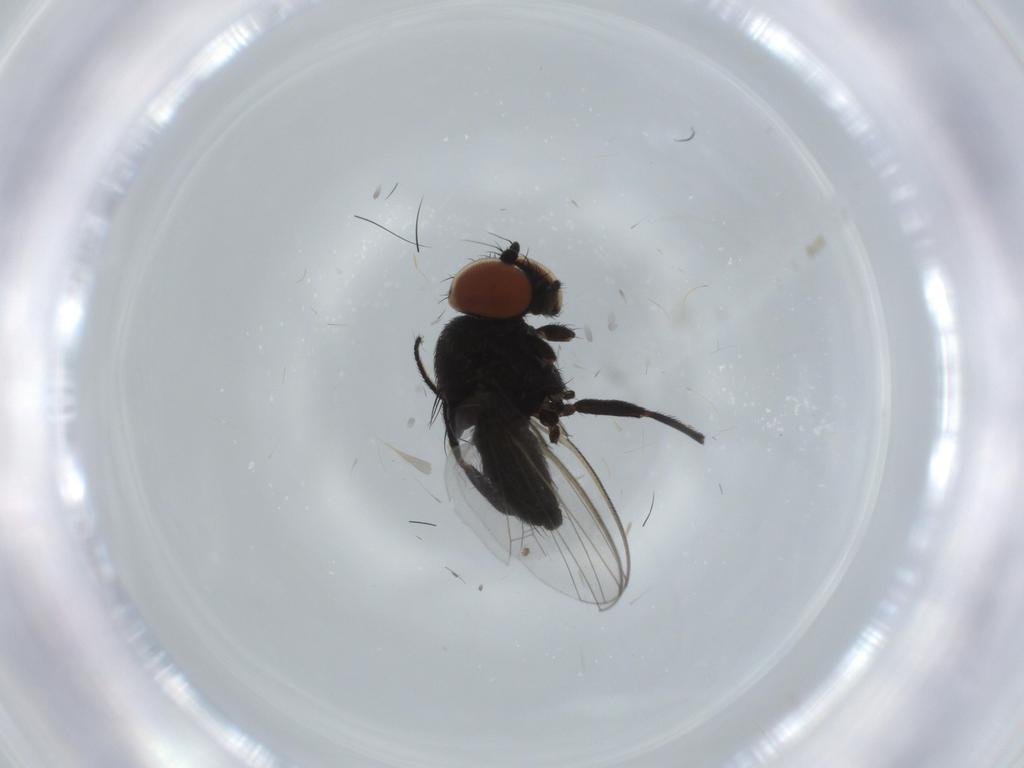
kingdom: Animalia
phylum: Arthropoda
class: Insecta
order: Diptera
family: Milichiidae
